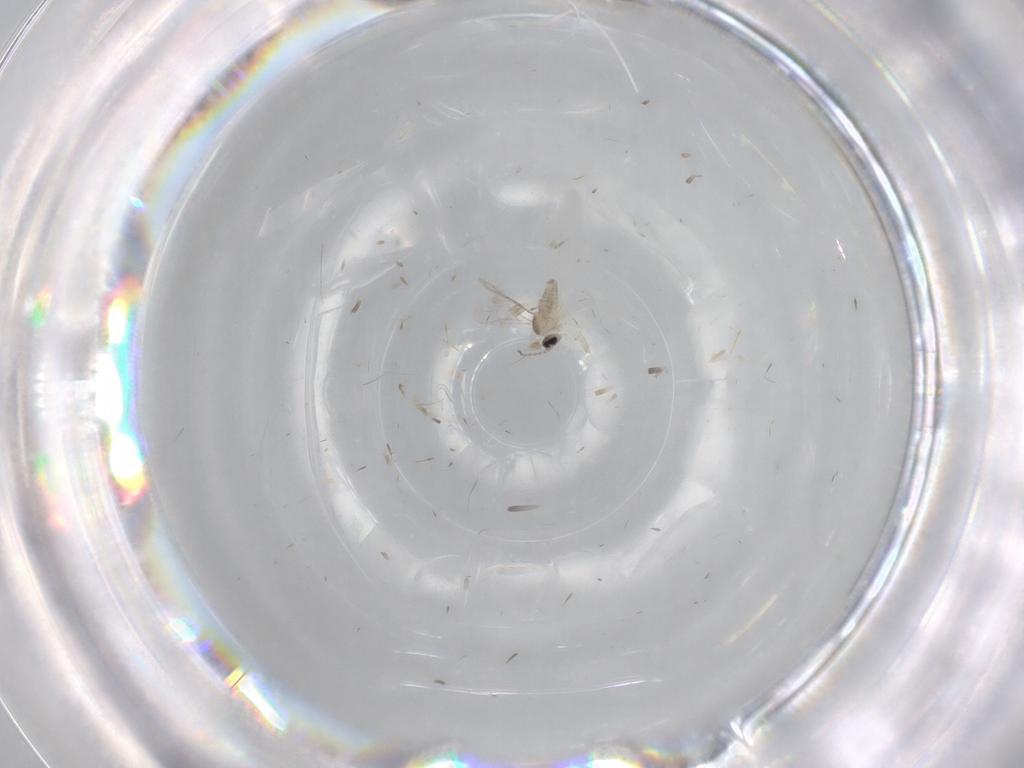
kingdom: Animalia
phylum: Arthropoda
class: Insecta
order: Diptera
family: Cecidomyiidae
